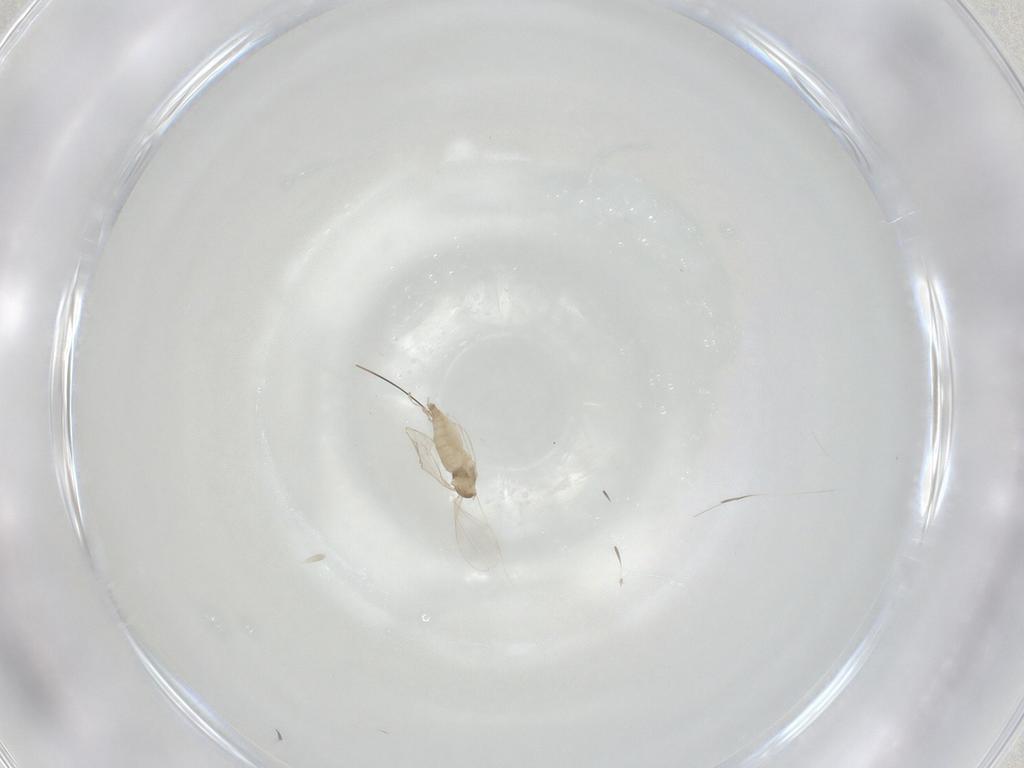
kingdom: Animalia
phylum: Arthropoda
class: Insecta
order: Diptera
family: Cecidomyiidae
